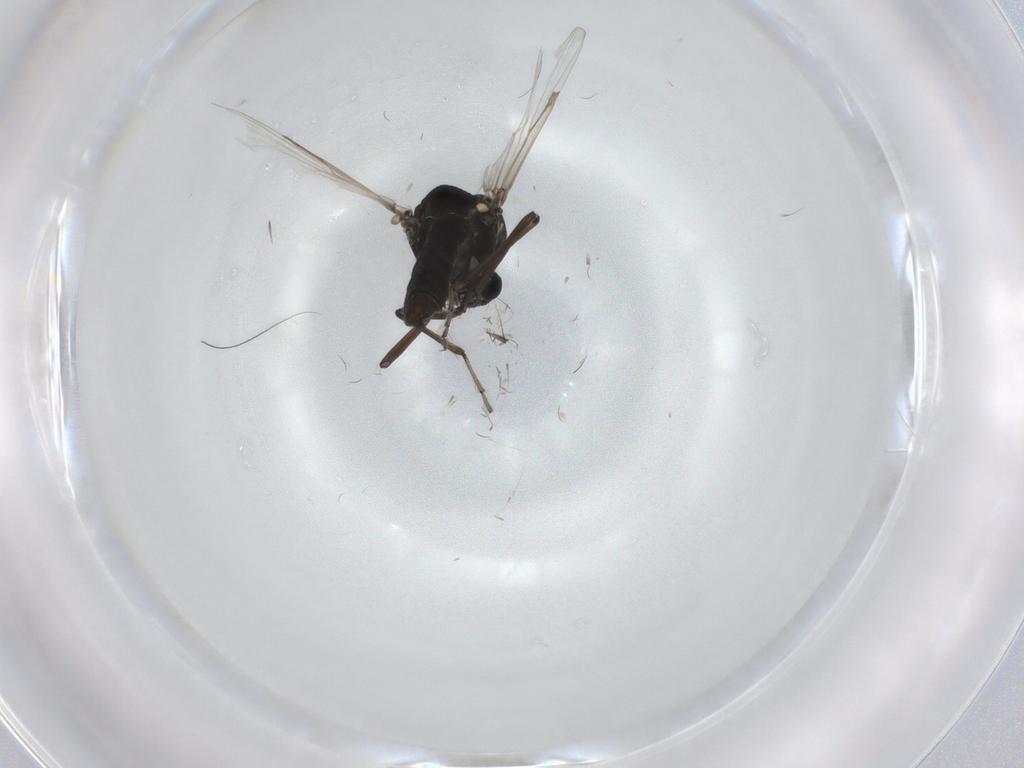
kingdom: Animalia
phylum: Arthropoda
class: Insecta
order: Diptera
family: Ceratopogonidae
